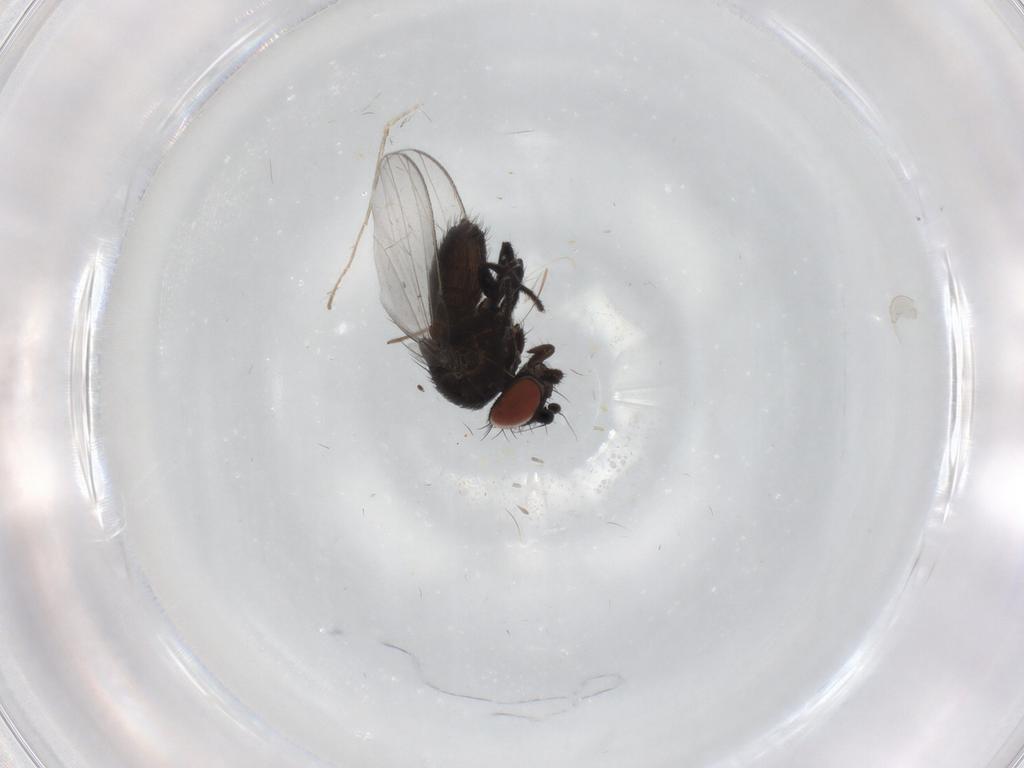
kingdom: Animalia
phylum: Arthropoda
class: Insecta
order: Diptera
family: Milichiidae
